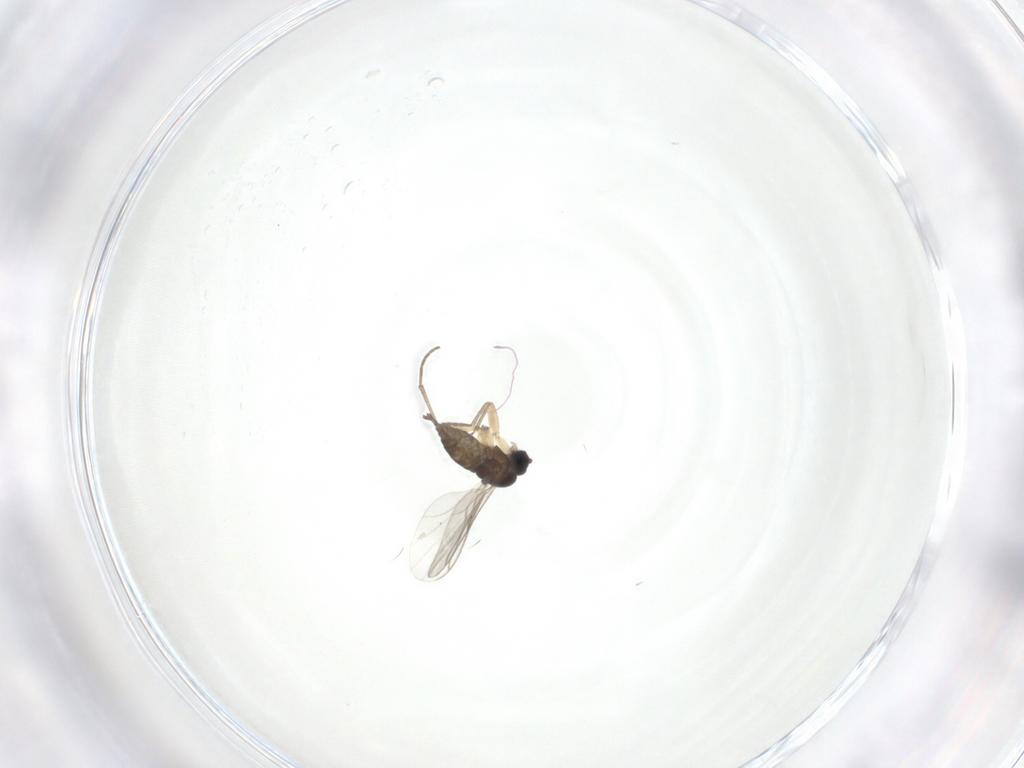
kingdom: Animalia
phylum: Arthropoda
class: Insecta
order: Diptera
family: Sciaridae
